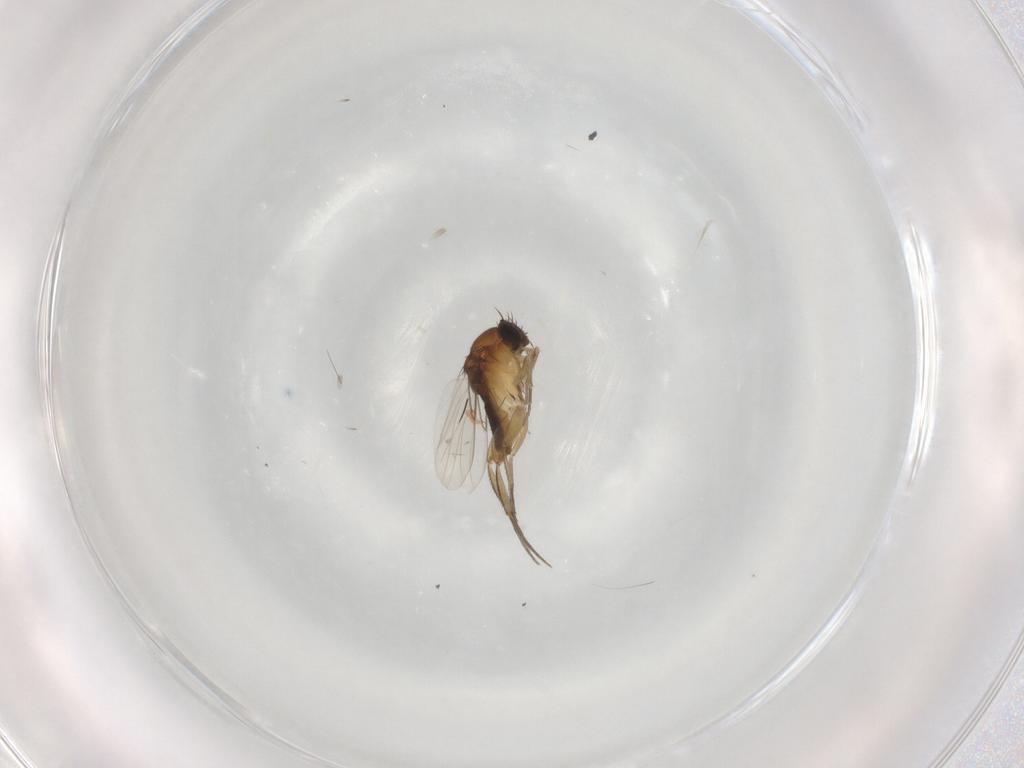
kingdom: Animalia
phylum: Arthropoda
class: Insecta
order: Diptera
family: Phoridae
